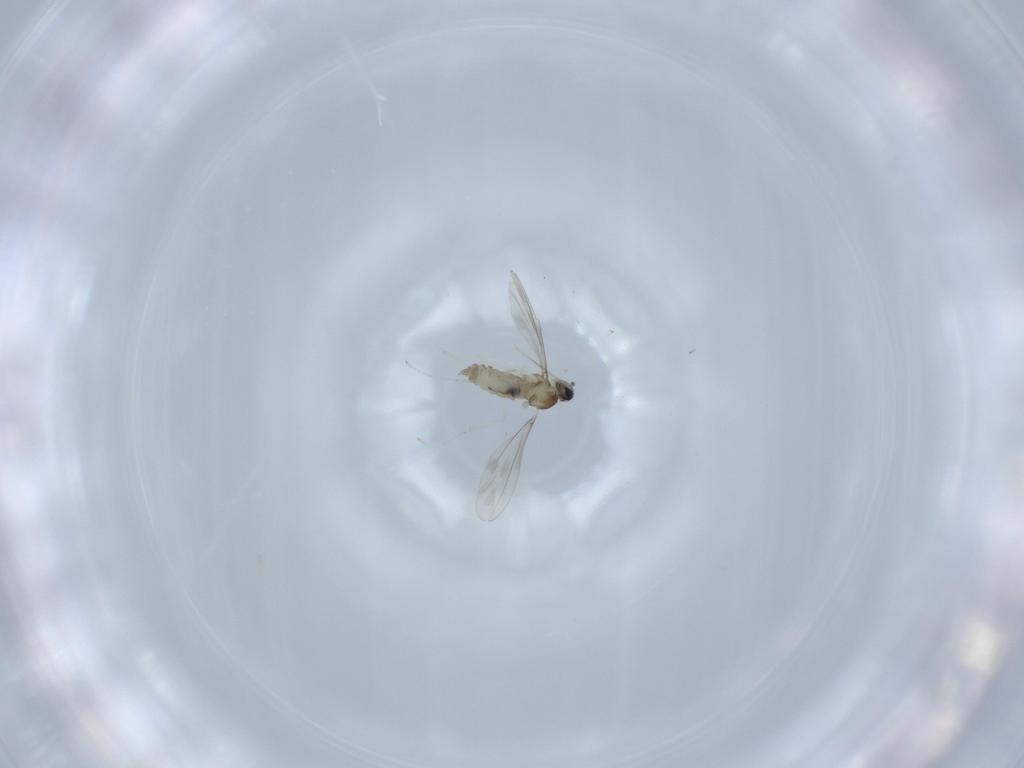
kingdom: Animalia
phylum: Arthropoda
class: Insecta
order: Diptera
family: Cecidomyiidae
